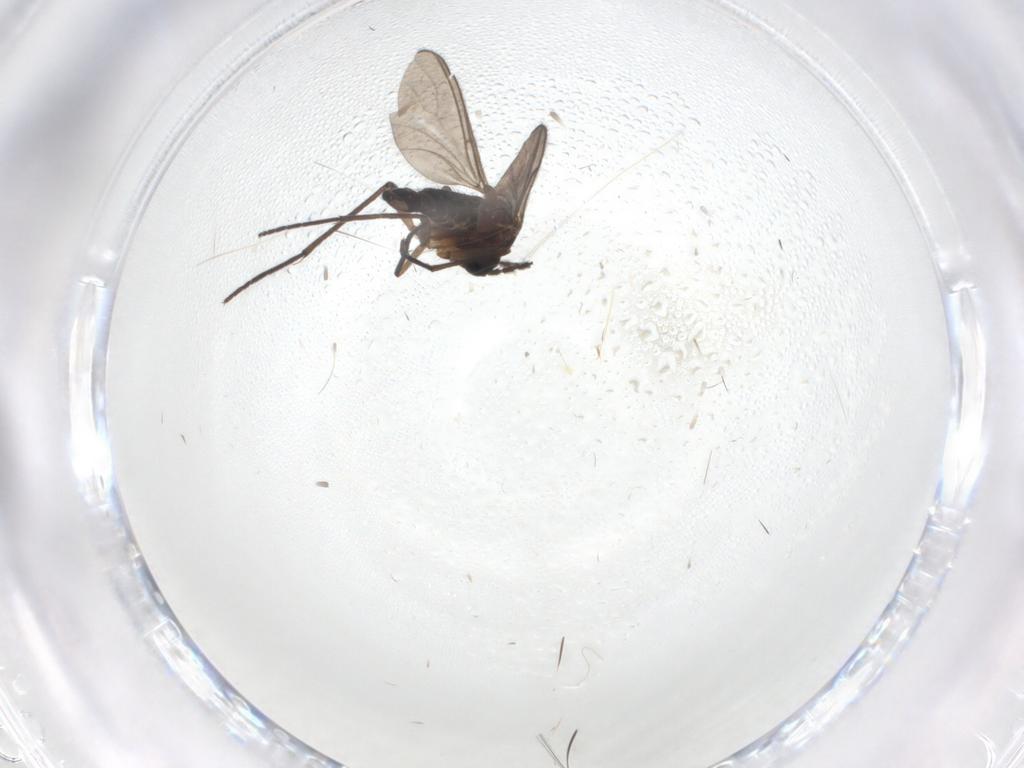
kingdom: Animalia
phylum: Arthropoda
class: Insecta
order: Diptera
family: Sciaridae
